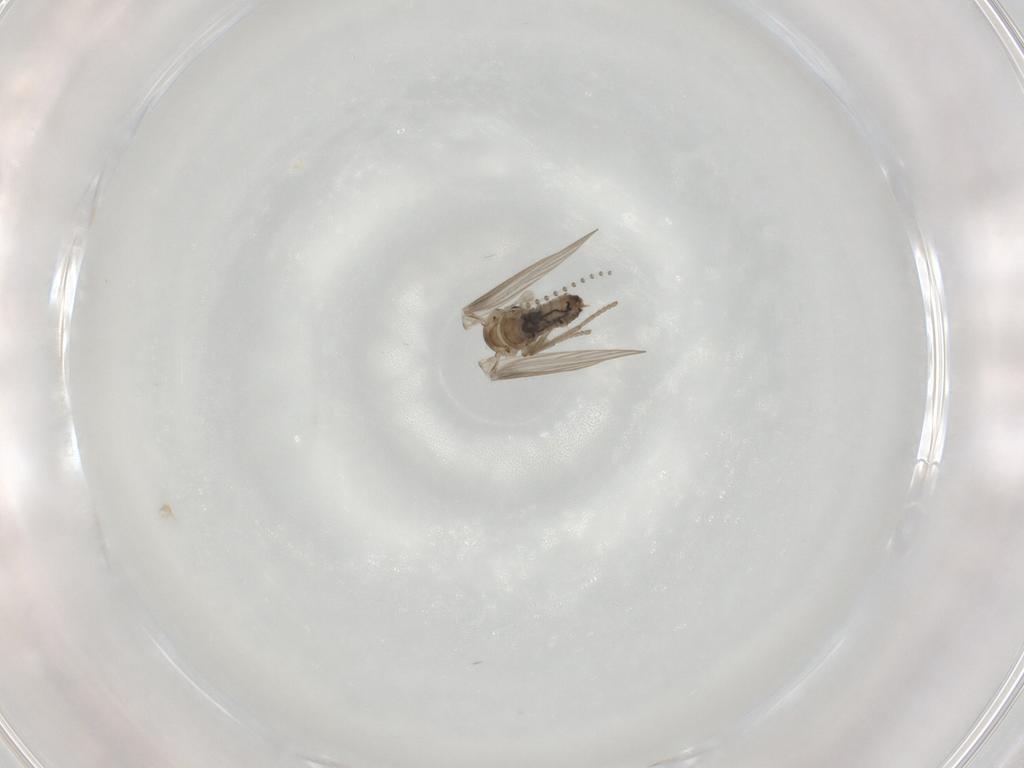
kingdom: Animalia
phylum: Arthropoda
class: Insecta
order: Diptera
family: Psychodidae
